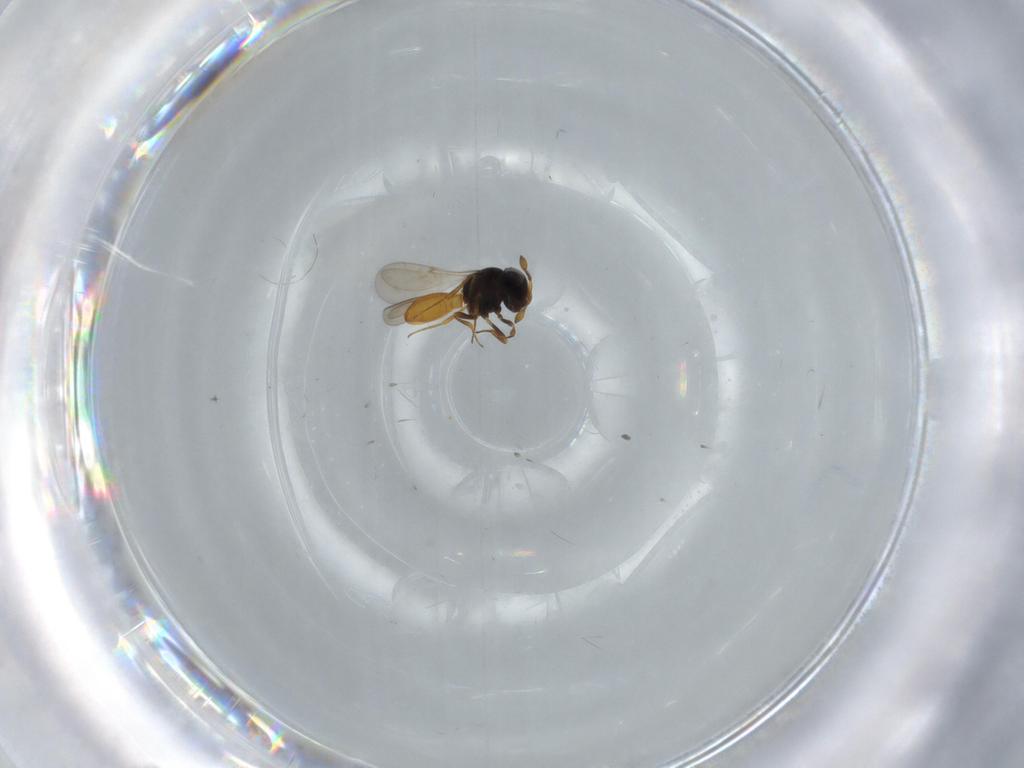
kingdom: Animalia
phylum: Arthropoda
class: Insecta
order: Hymenoptera
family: Scelionidae
